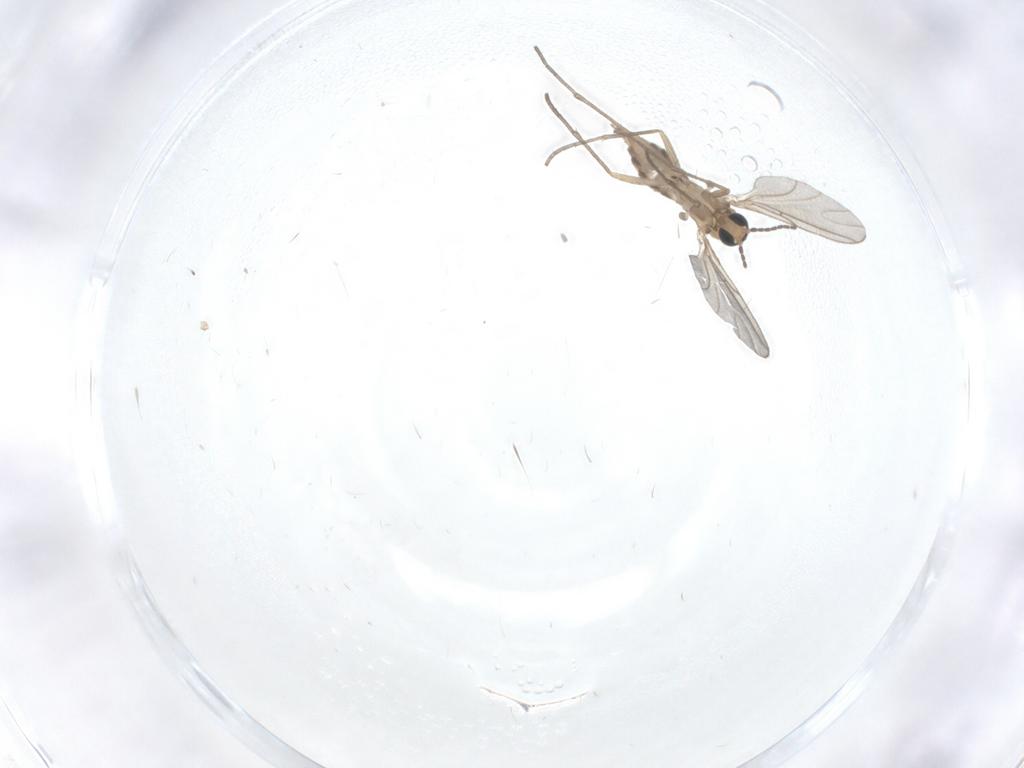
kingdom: Animalia
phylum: Arthropoda
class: Insecta
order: Diptera
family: Sciaridae
